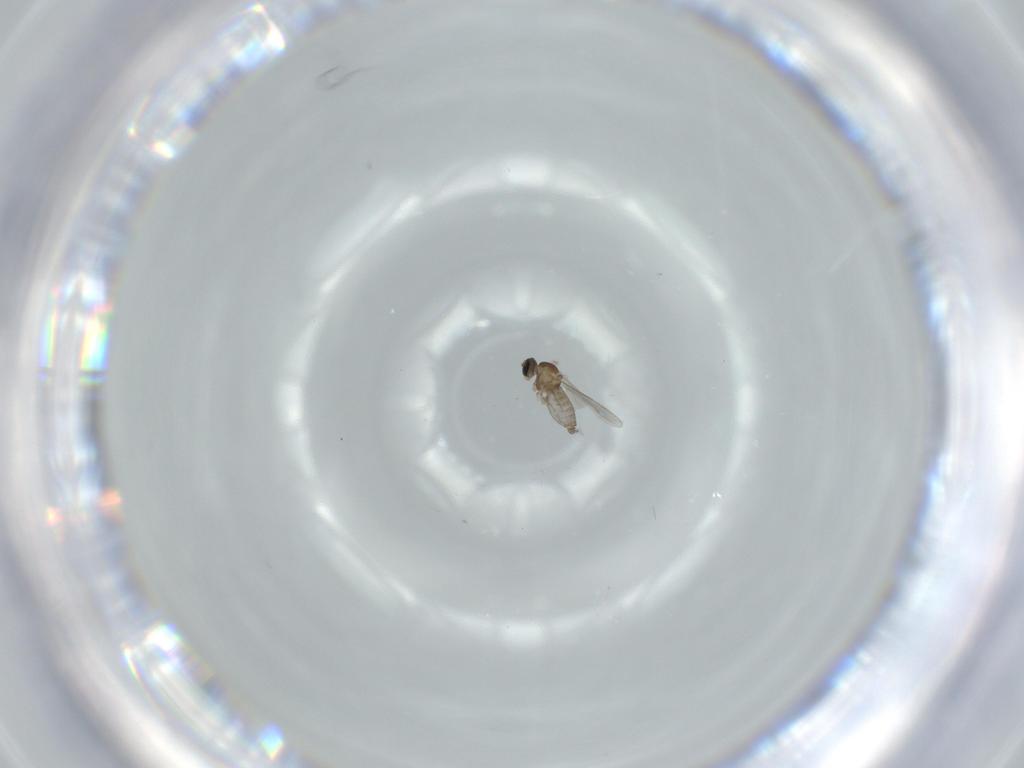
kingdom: Animalia
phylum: Arthropoda
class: Insecta
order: Diptera
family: Cecidomyiidae
